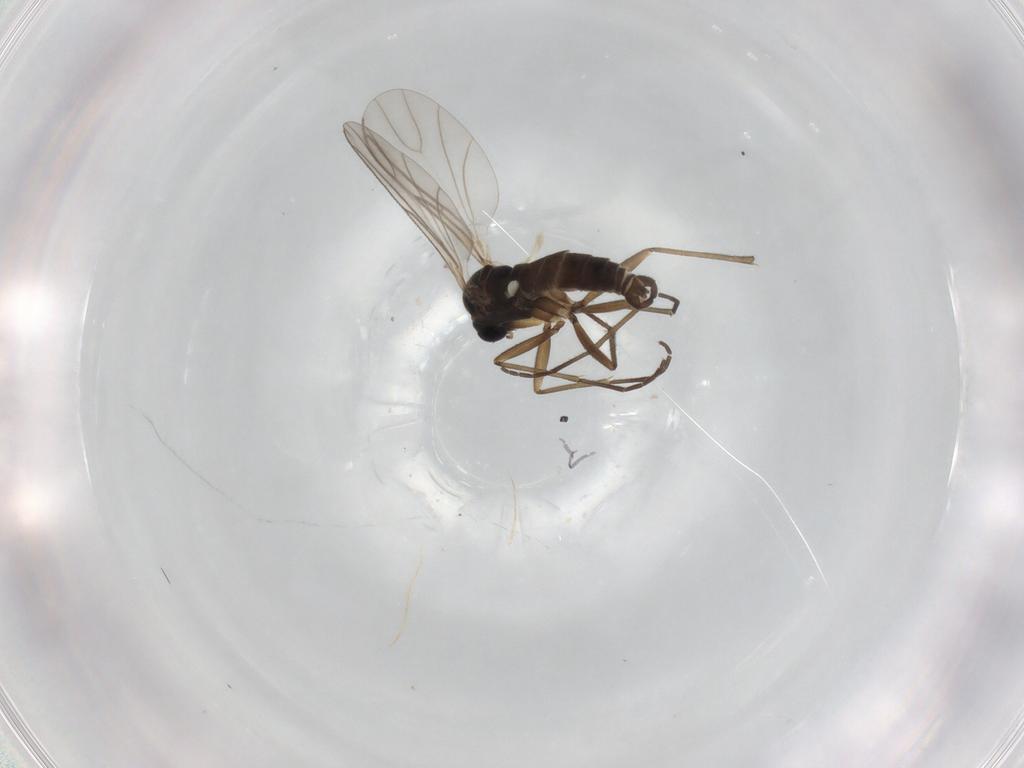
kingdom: Animalia
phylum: Arthropoda
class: Insecta
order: Diptera
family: Sciaridae
